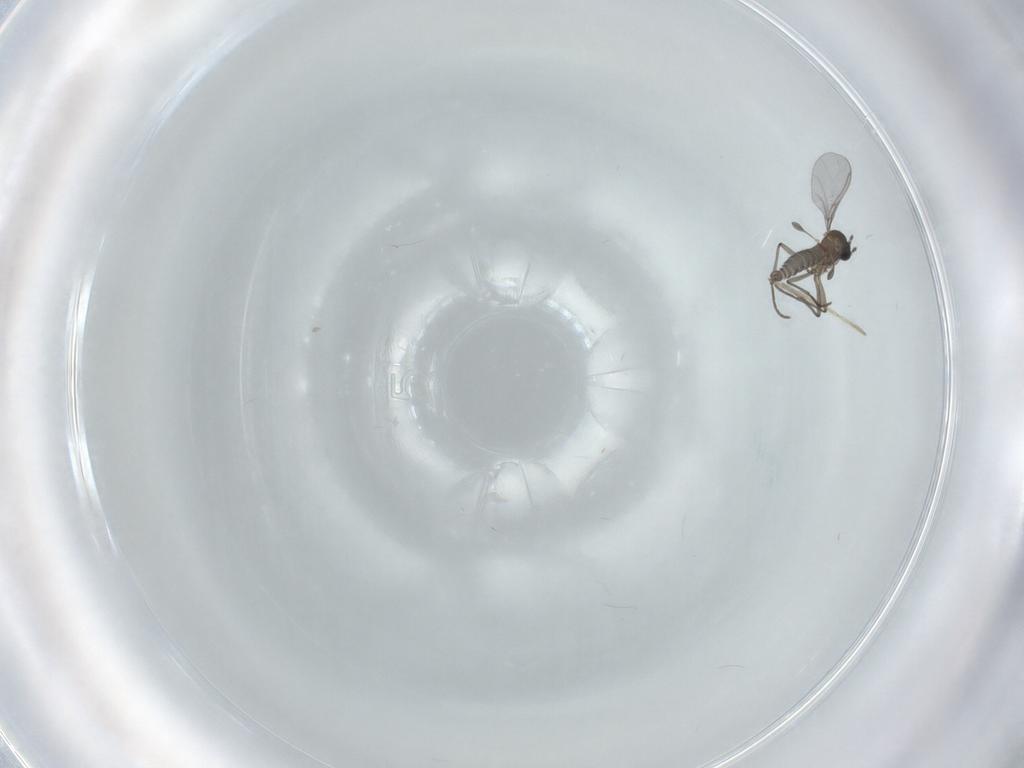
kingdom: Animalia
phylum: Arthropoda
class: Insecta
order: Diptera
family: Sciaridae
